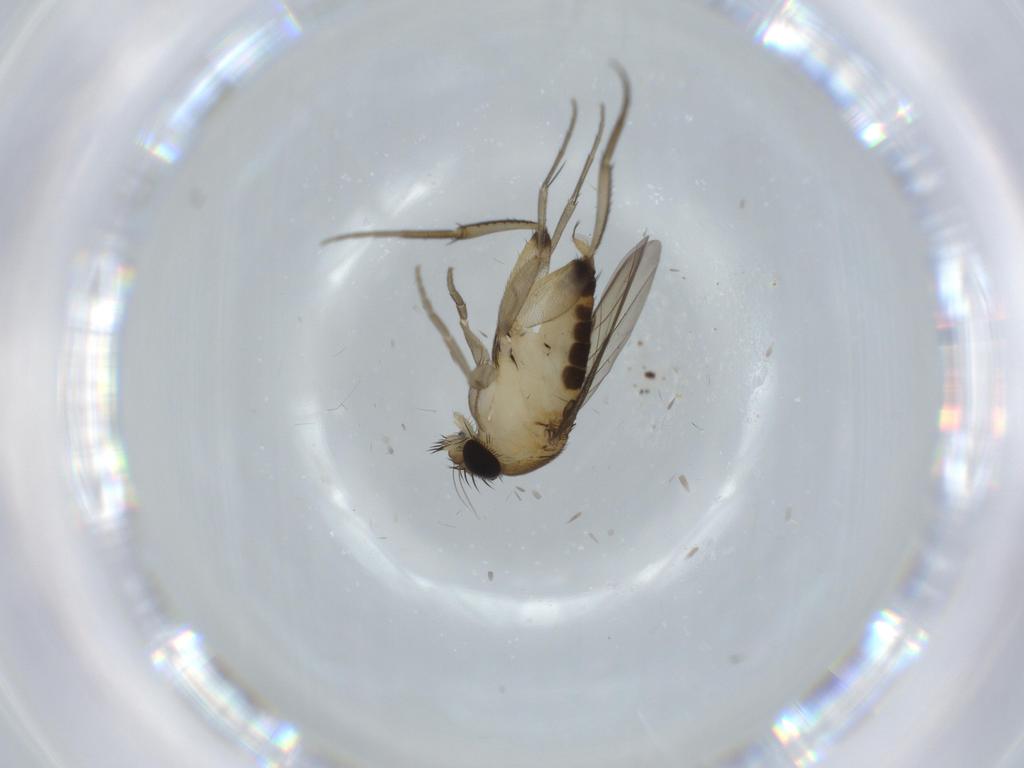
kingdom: Animalia
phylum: Arthropoda
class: Insecta
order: Diptera
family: Phoridae
